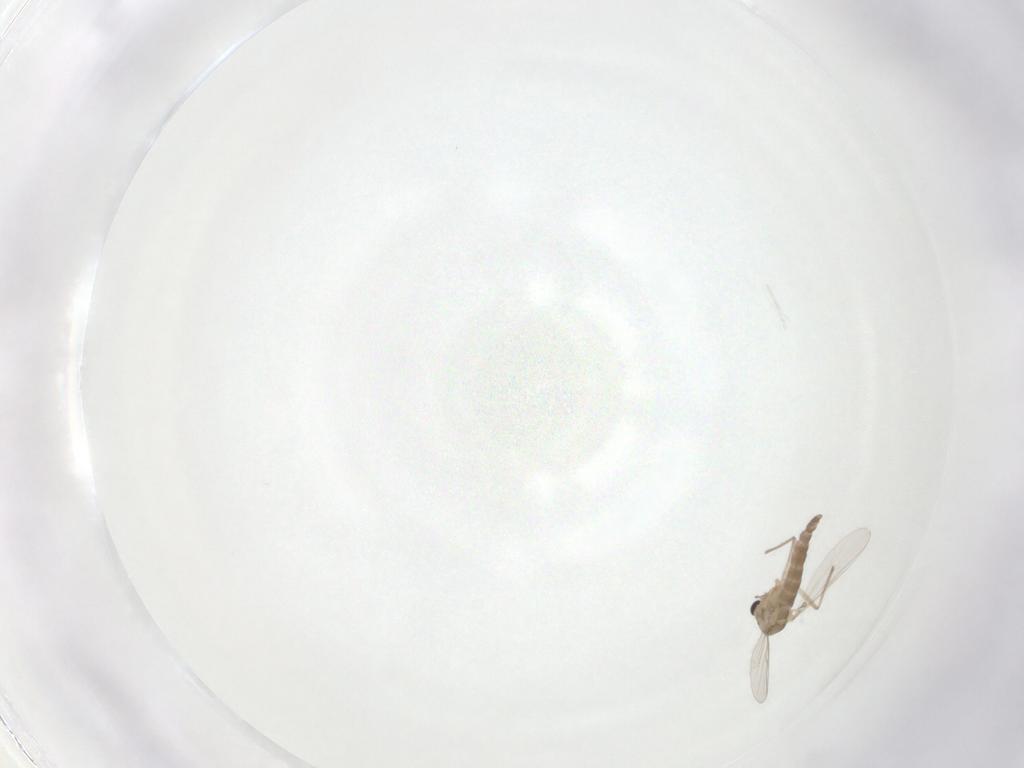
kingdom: Animalia
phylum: Arthropoda
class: Insecta
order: Diptera
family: Chironomidae
